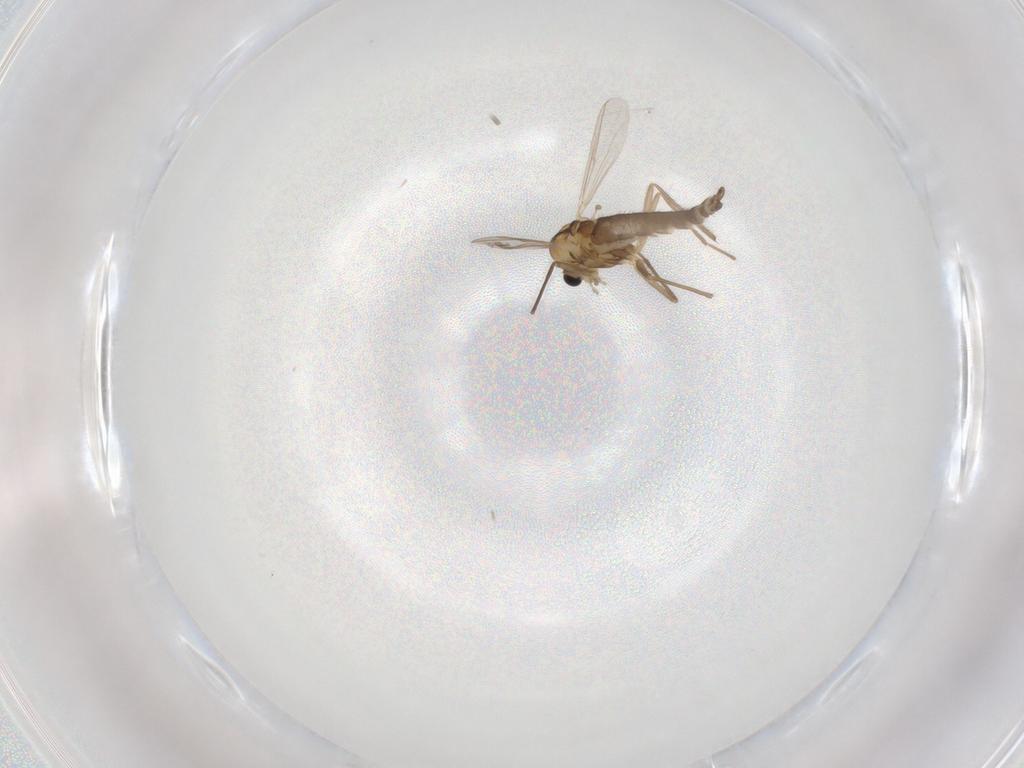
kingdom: Animalia
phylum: Arthropoda
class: Insecta
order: Diptera
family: Chironomidae
